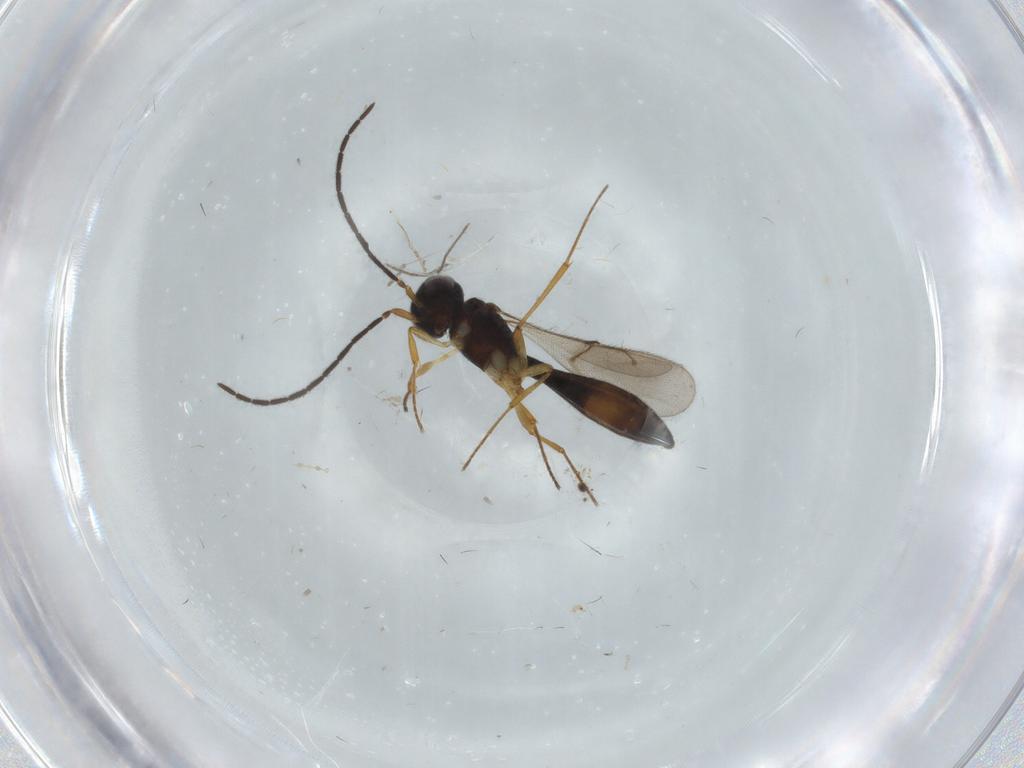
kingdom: Animalia
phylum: Arthropoda
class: Insecta
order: Hymenoptera
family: Scelionidae
